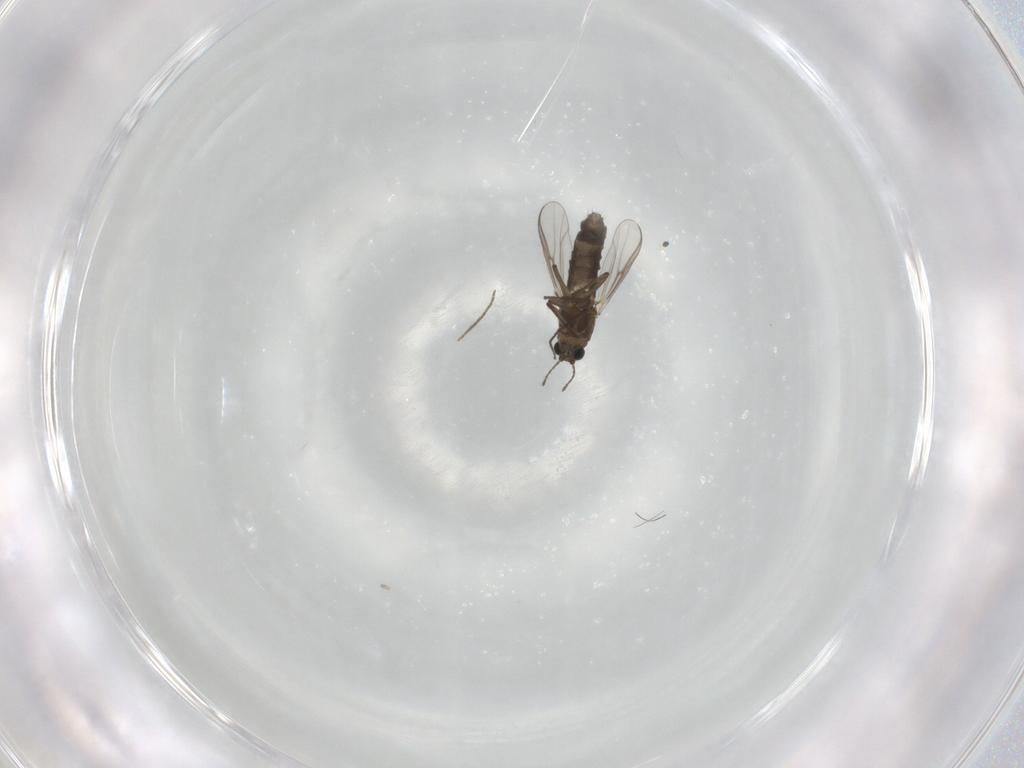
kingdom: Animalia
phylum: Arthropoda
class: Insecta
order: Diptera
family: Chironomidae
